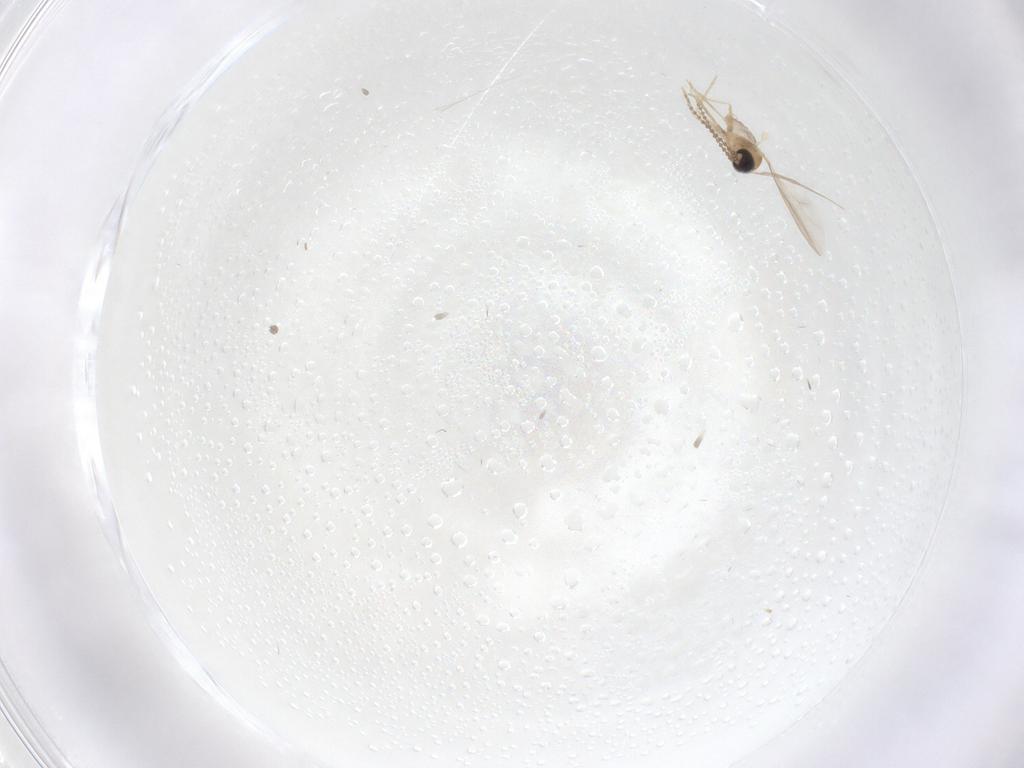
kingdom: Animalia
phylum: Arthropoda
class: Insecta
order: Diptera
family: Cecidomyiidae
